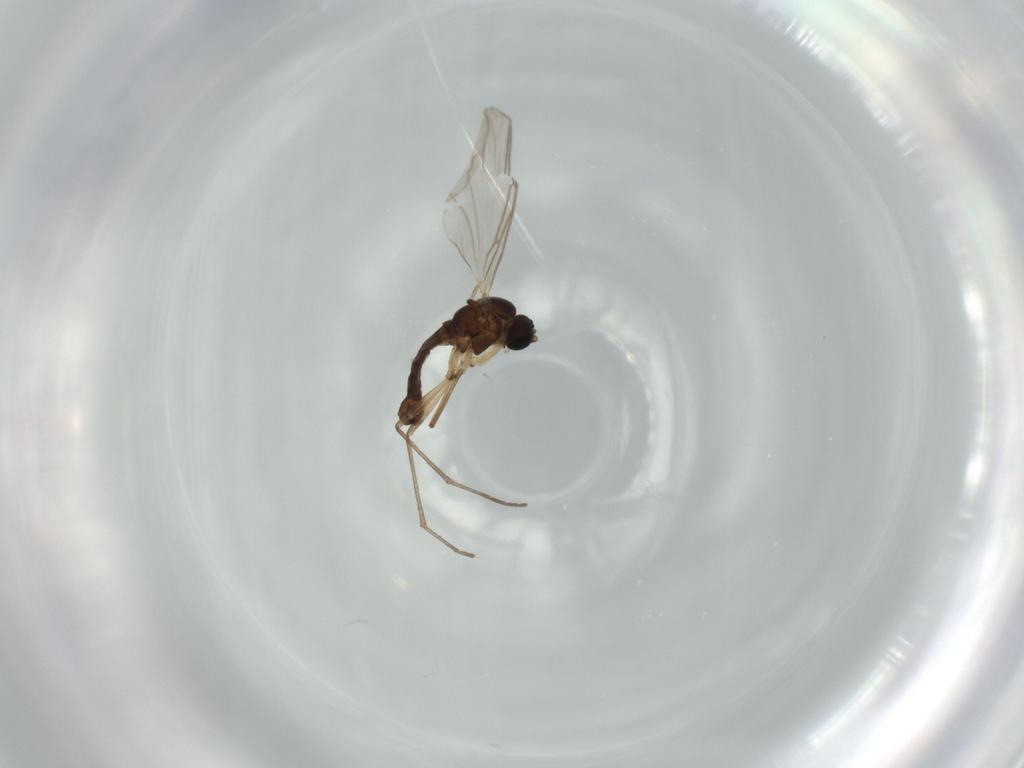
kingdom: Animalia
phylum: Arthropoda
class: Insecta
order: Diptera
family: Sciaridae
